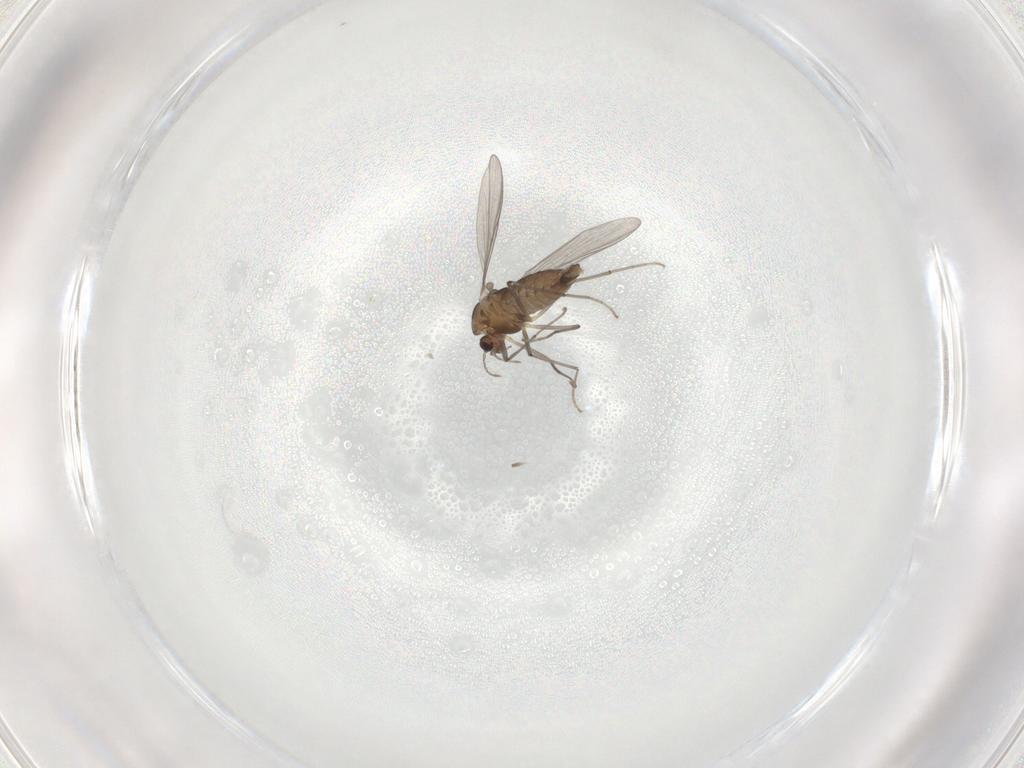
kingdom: Animalia
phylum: Arthropoda
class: Insecta
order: Diptera
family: Chironomidae
